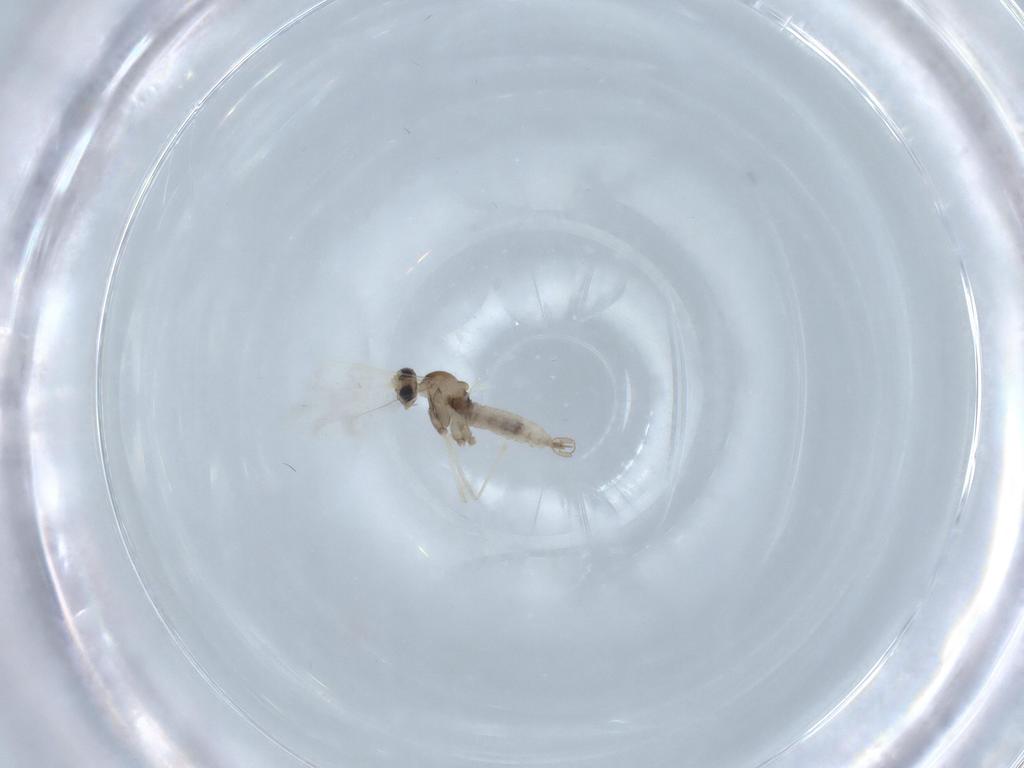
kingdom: Animalia
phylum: Arthropoda
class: Insecta
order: Diptera
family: Cecidomyiidae
